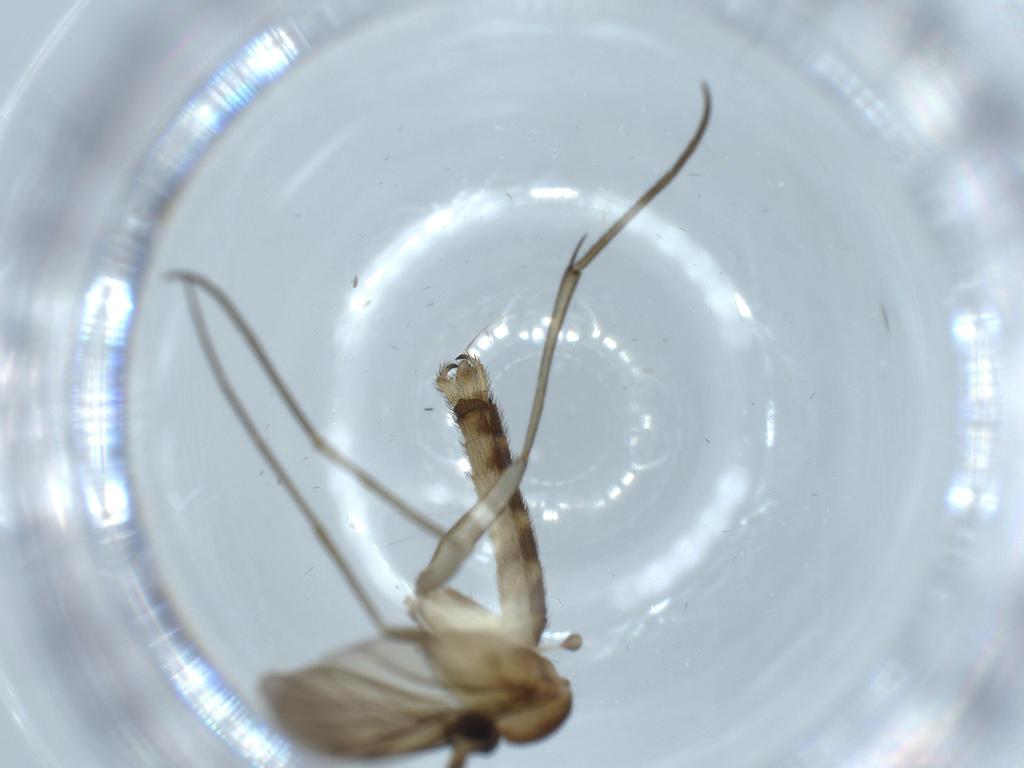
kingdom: Animalia
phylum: Arthropoda
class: Insecta
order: Diptera
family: Sciaridae
